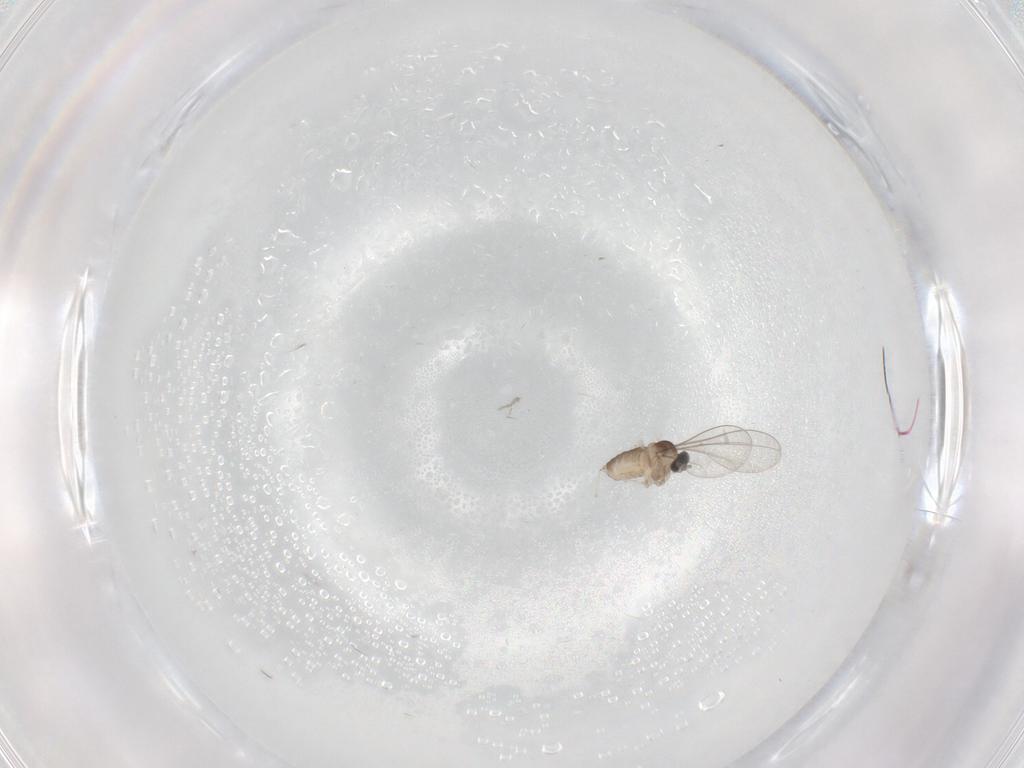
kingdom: Animalia
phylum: Arthropoda
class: Insecta
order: Diptera
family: Cecidomyiidae
